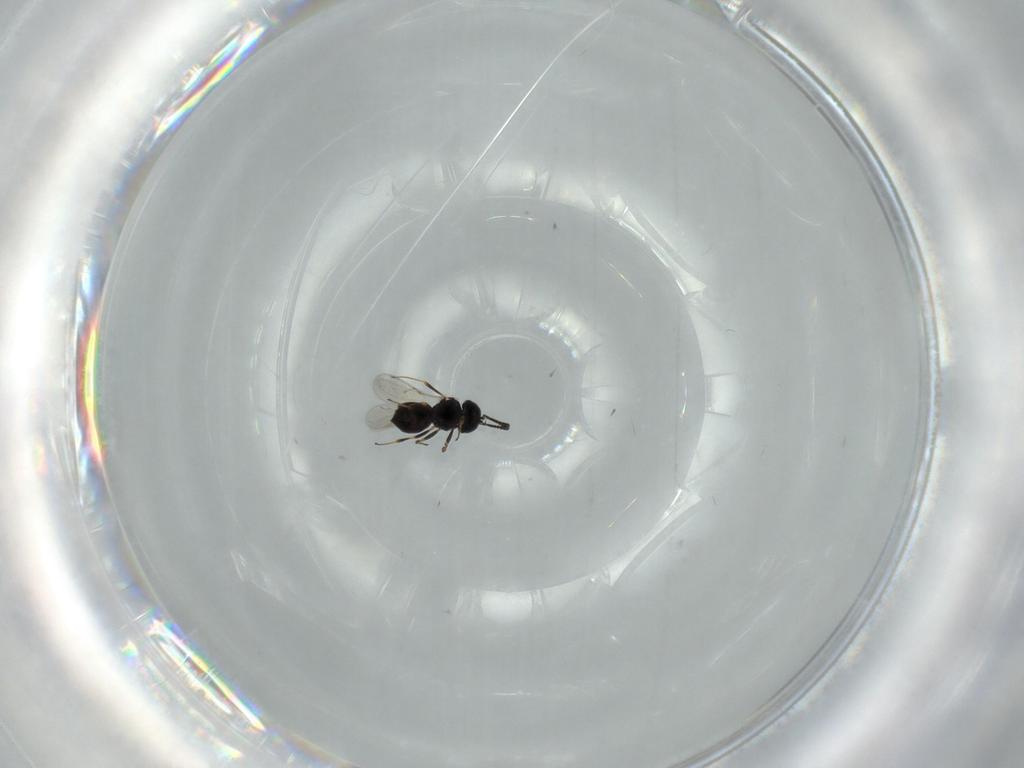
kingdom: Animalia
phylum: Arthropoda
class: Insecta
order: Hymenoptera
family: Scelionidae
